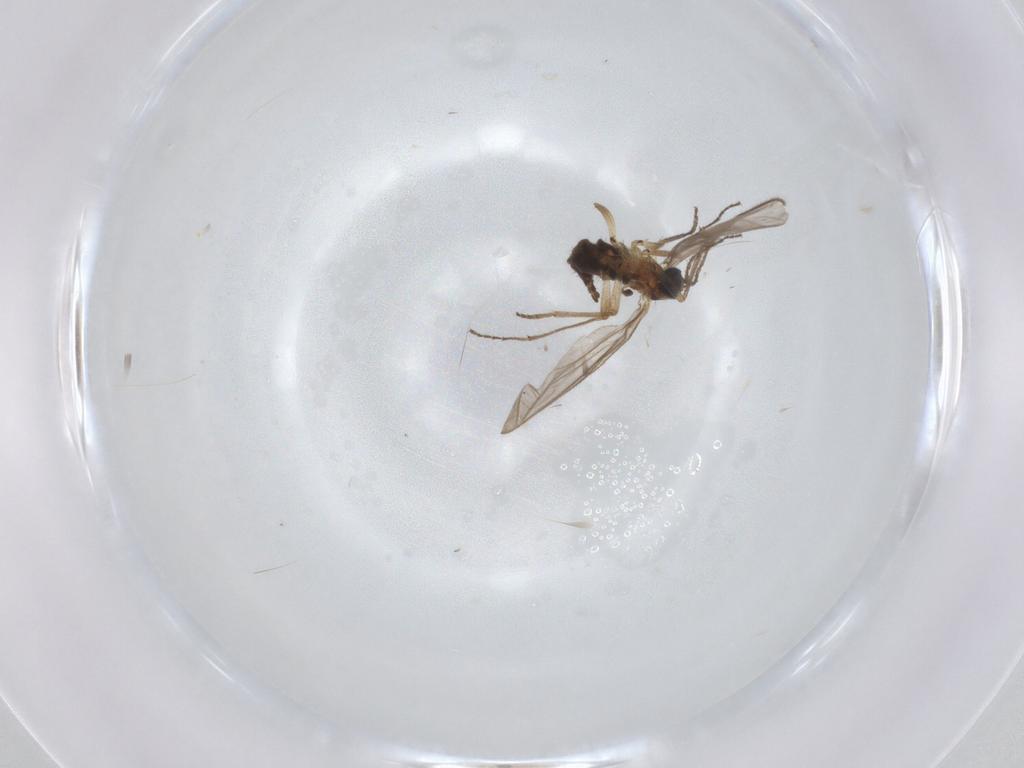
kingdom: Animalia
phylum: Arthropoda
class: Insecta
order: Diptera
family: Sciaridae
